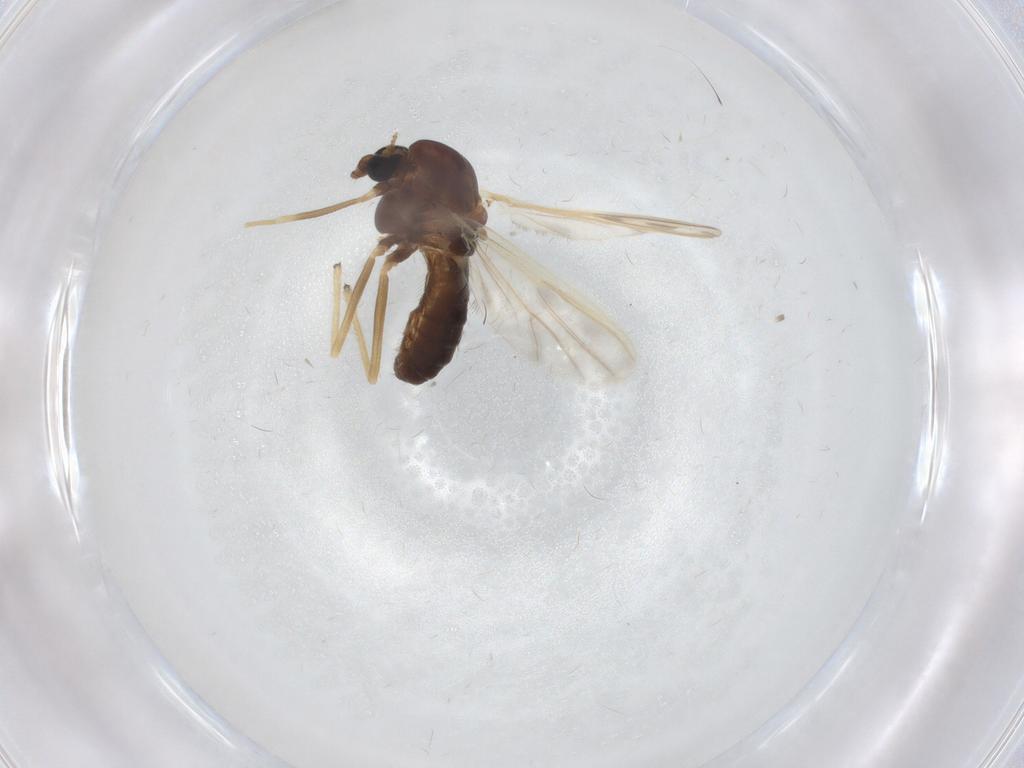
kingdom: Animalia
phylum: Arthropoda
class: Insecta
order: Diptera
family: Chironomidae
